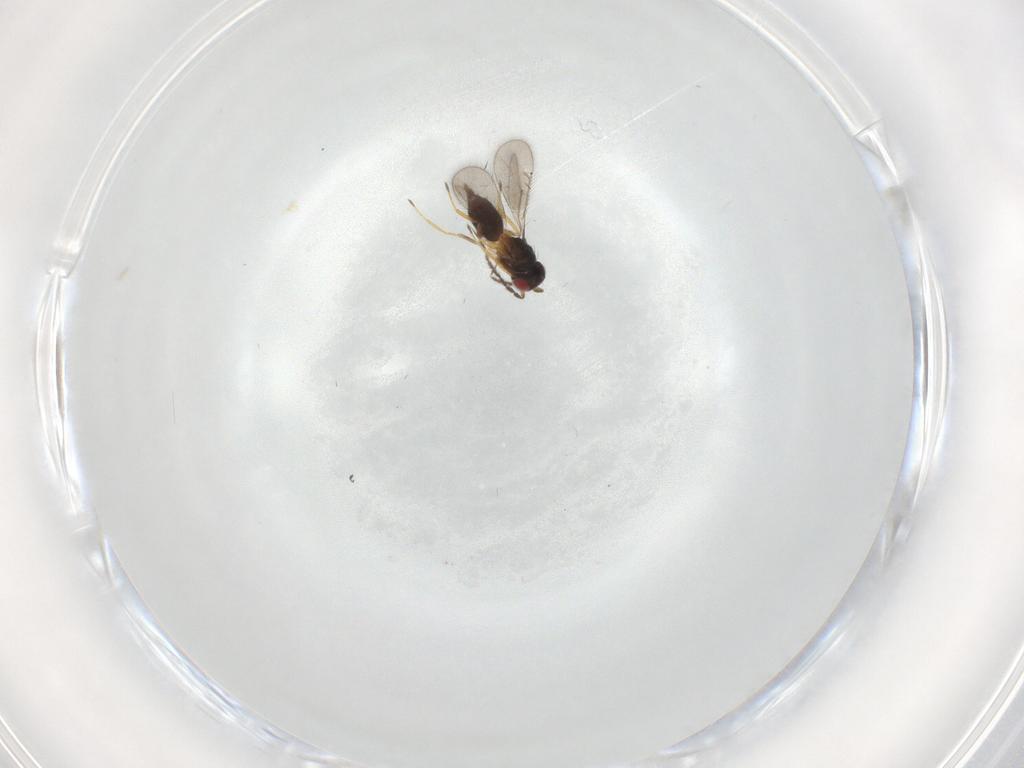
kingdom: Animalia
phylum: Arthropoda
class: Insecta
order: Hymenoptera
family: Eulophidae
